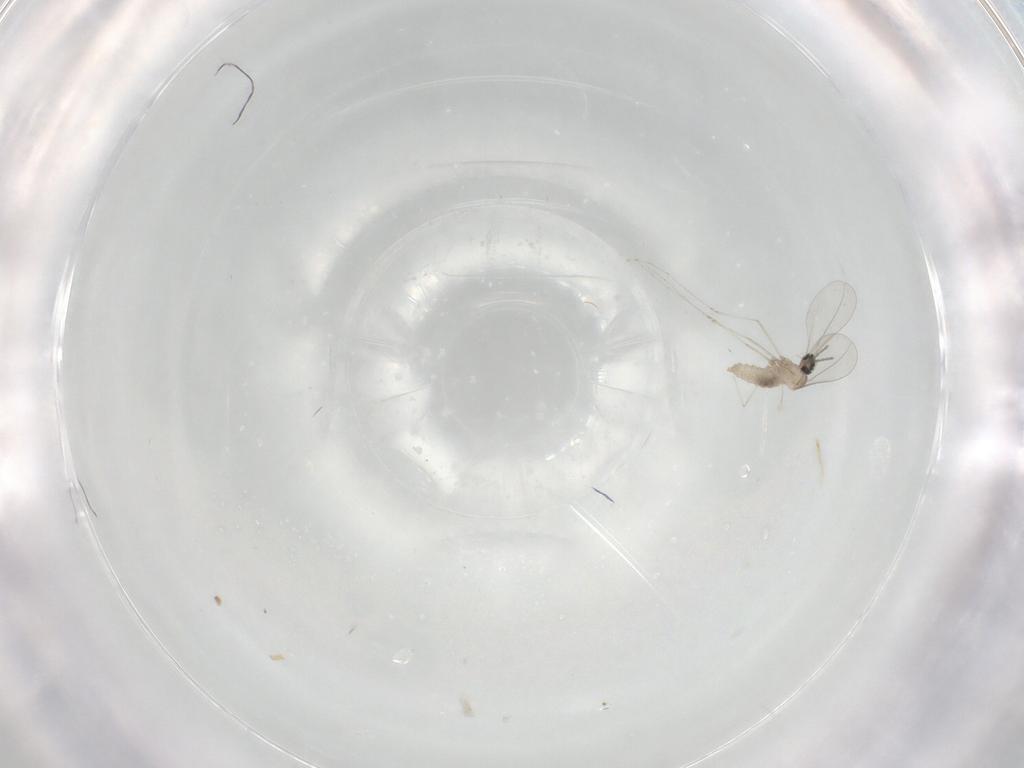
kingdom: Animalia
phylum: Arthropoda
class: Insecta
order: Diptera
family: Cecidomyiidae
